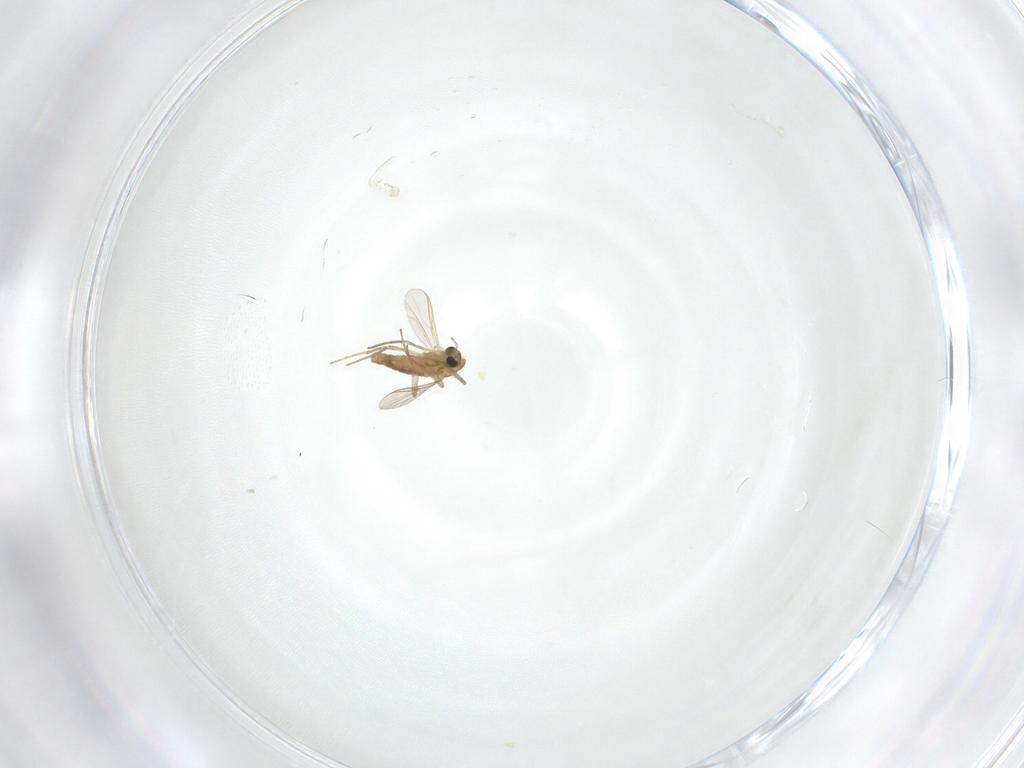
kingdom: Animalia
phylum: Arthropoda
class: Insecta
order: Diptera
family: Chironomidae
